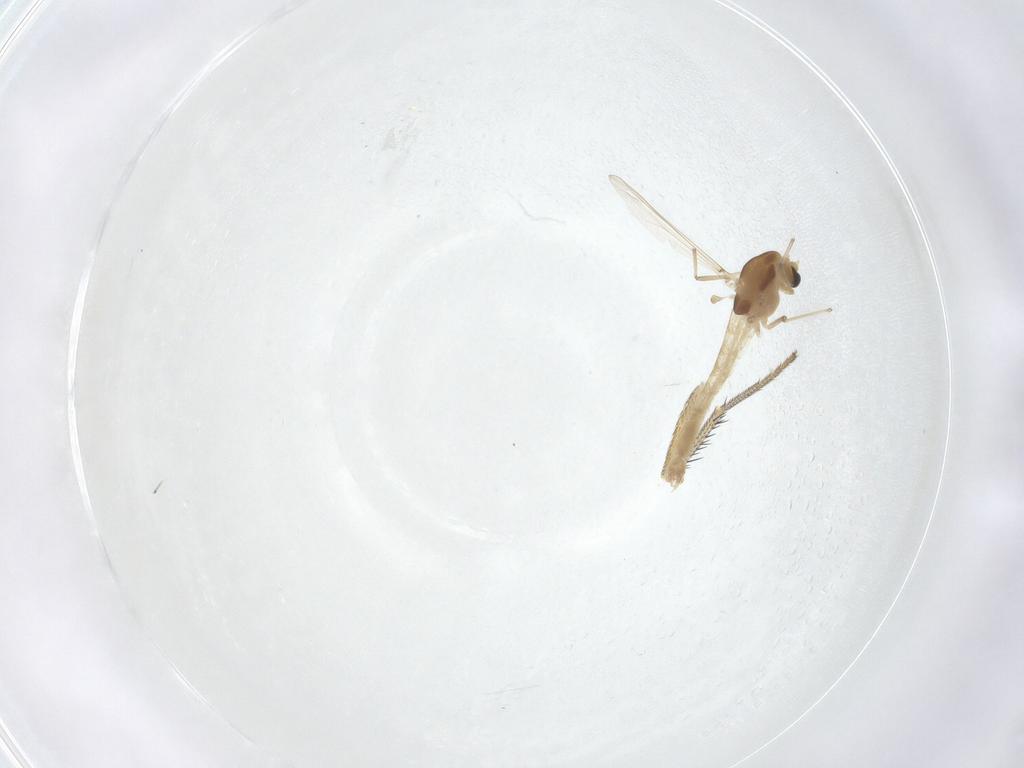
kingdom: Animalia
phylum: Arthropoda
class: Insecta
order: Diptera
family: Chironomidae
